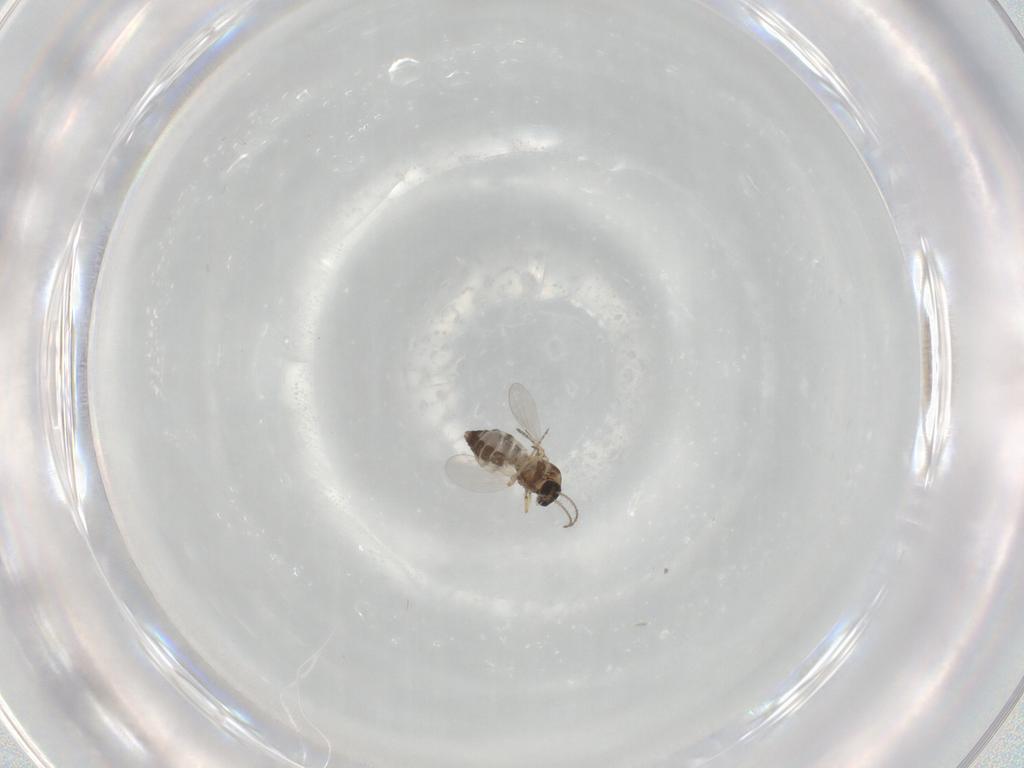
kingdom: Animalia
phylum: Arthropoda
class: Insecta
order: Diptera
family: Ceratopogonidae
